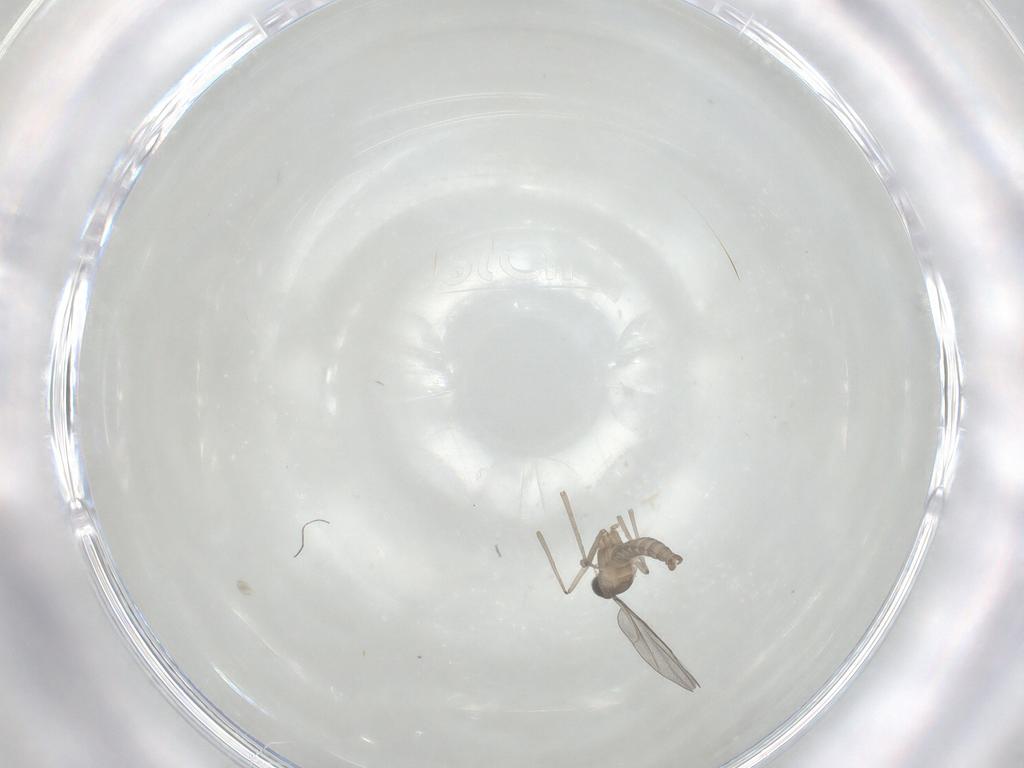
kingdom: Animalia
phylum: Arthropoda
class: Insecta
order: Diptera
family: Cecidomyiidae
